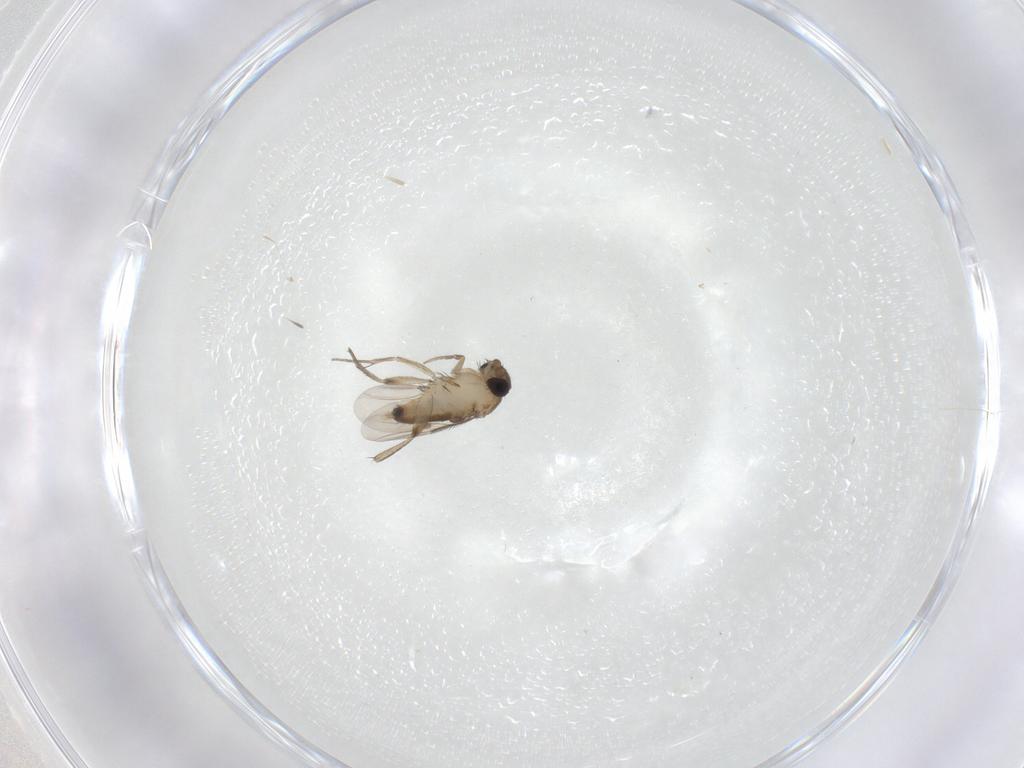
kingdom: Animalia
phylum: Arthropoda
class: Insecta
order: Diptera
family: Phoridae
